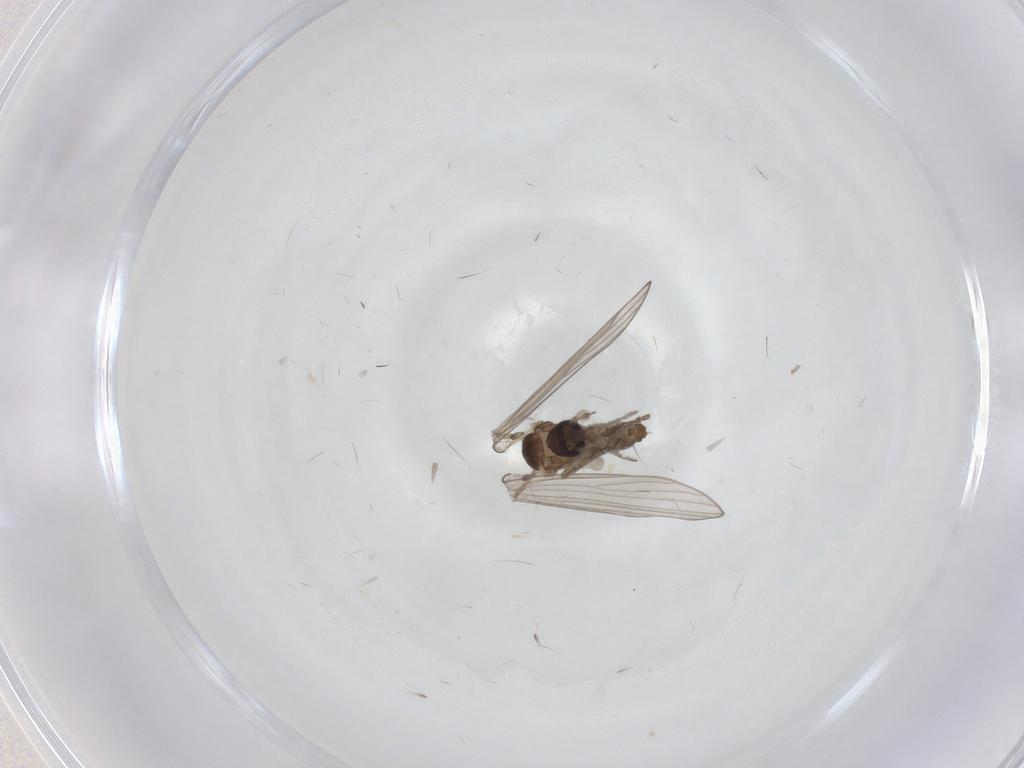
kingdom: Animalia
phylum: Arthropoda
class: Insecta
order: Diptera
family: Psychodidae
